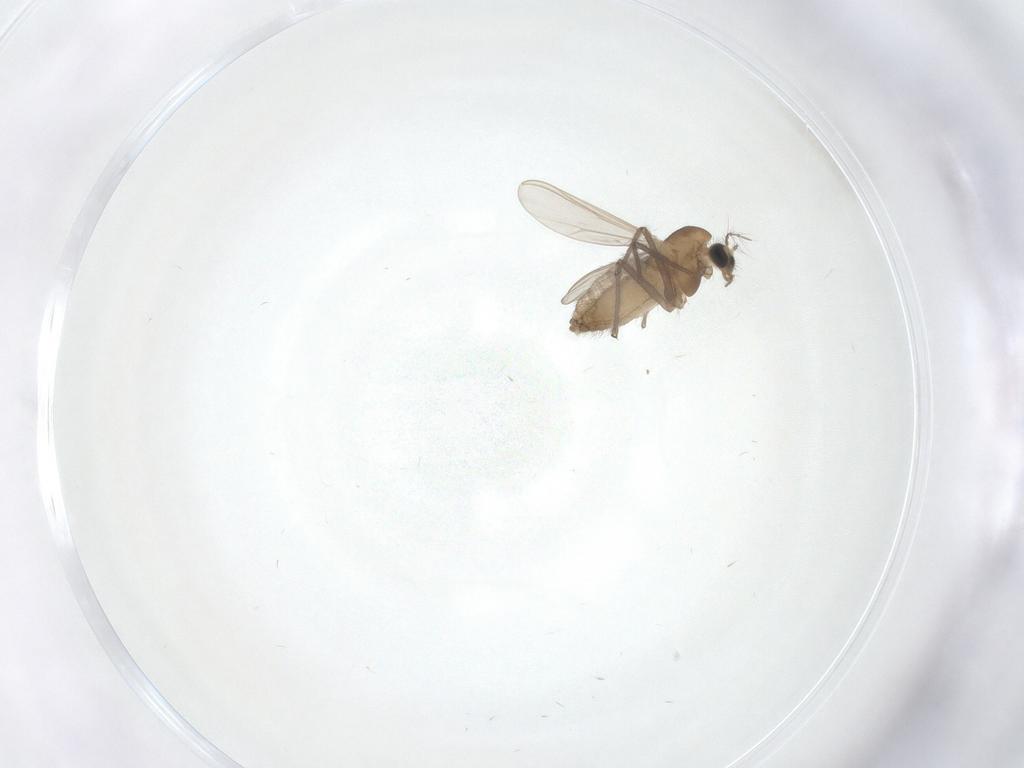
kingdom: Animalia
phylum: Arthropoda
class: Insecta
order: Diptera
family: Chironomidae
